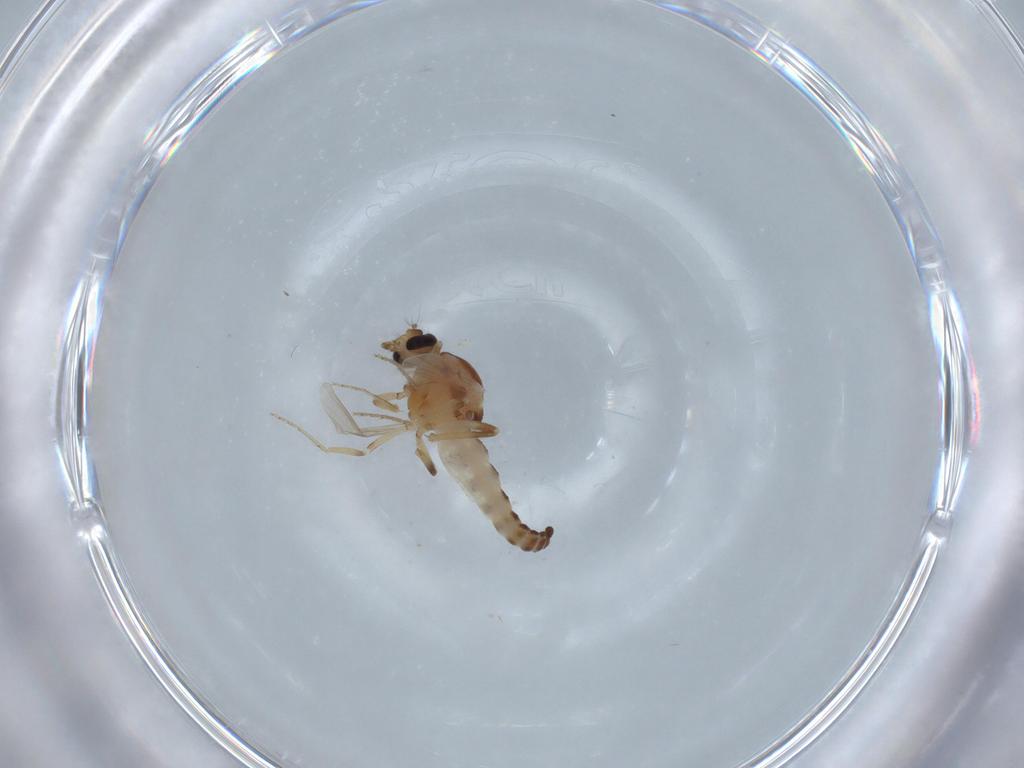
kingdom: Animalia
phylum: Arthropoda
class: Insecta
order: Diptera
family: Ceratopogonidae
